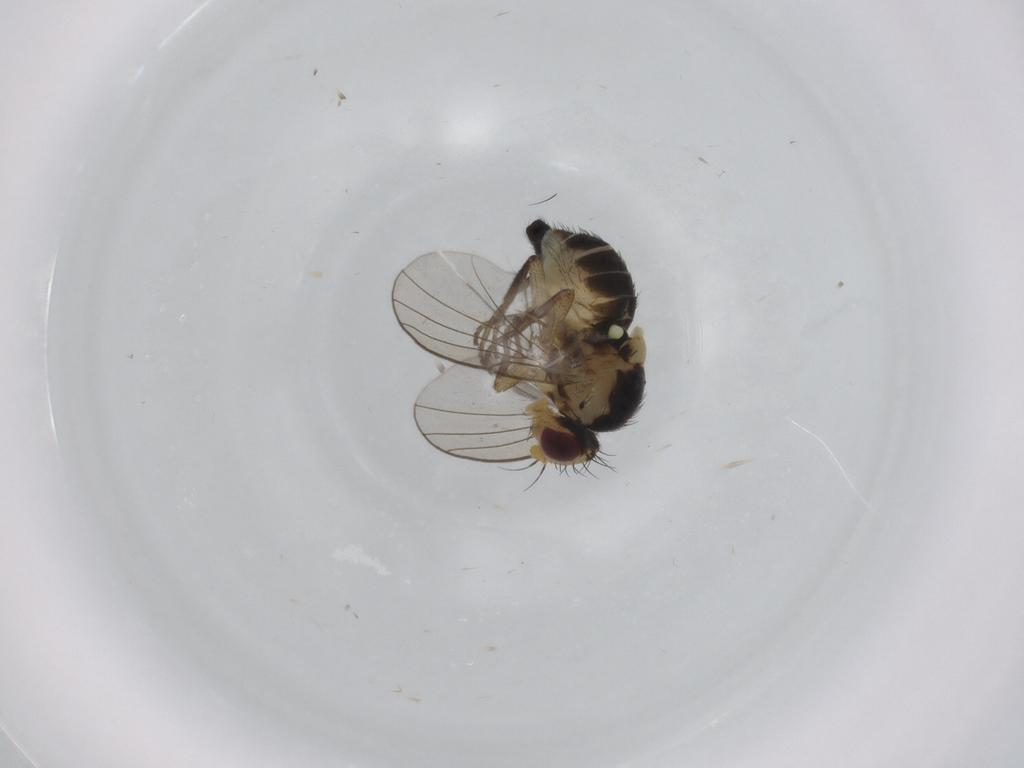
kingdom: Animalia
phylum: Arthropoda
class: Insecta
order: Diptera
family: Agromyzidae
